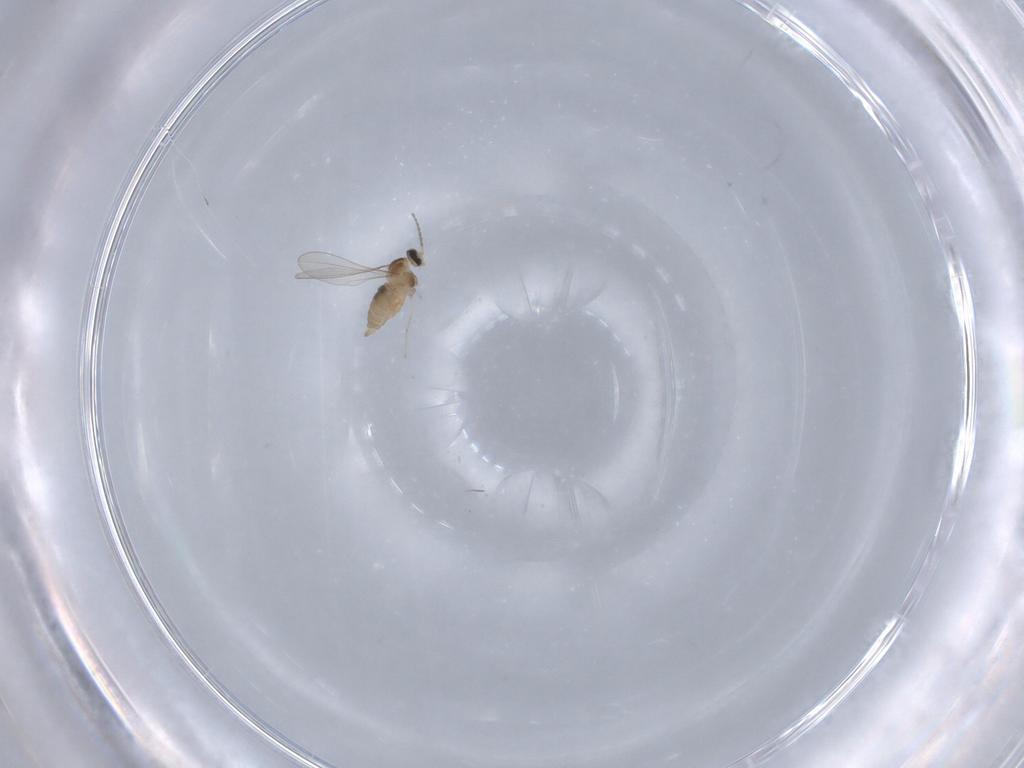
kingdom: Animalia
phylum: Arthropoda
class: Insecta
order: Diptera
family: Cecidomyiidae
